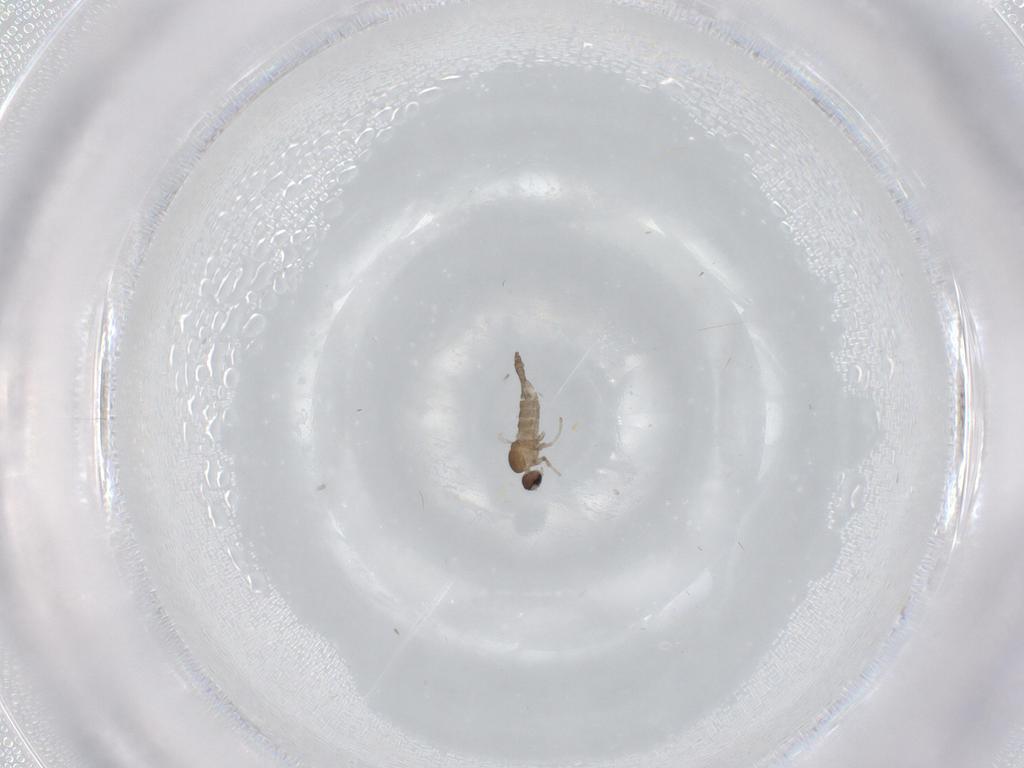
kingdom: Animalia
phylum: Arthropoda
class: Insecta
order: Diptera
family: Cecidomyiidae
